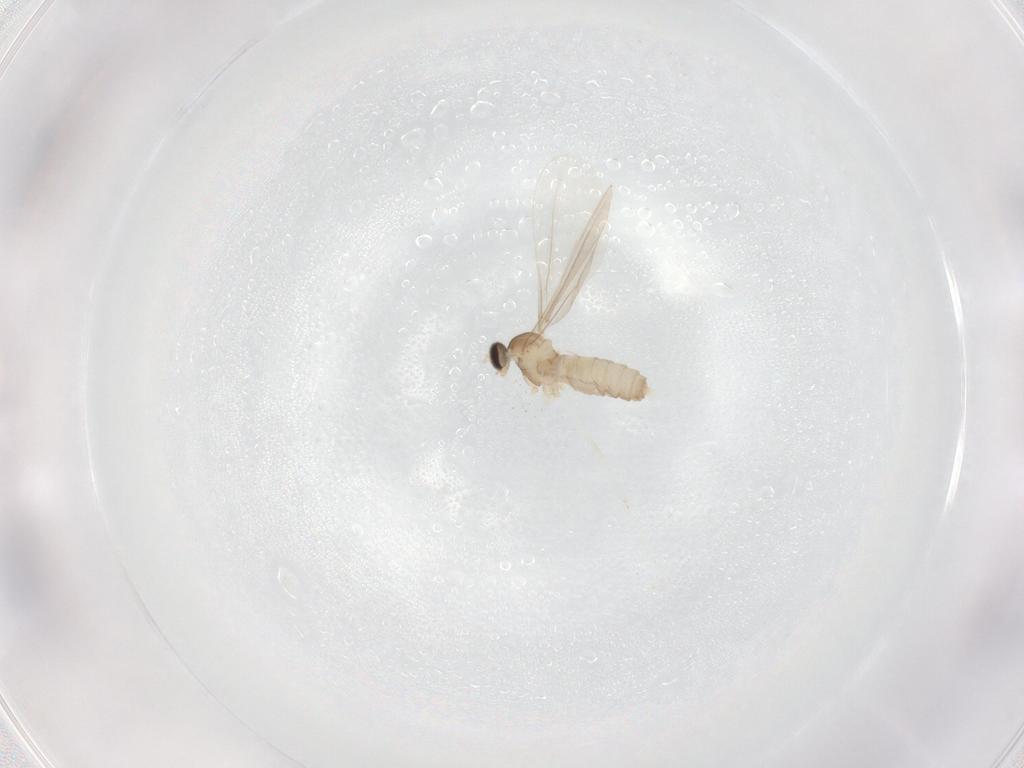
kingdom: Animalia
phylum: Arthropoda
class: Insecta
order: Diptera
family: Cecidomyiidae
